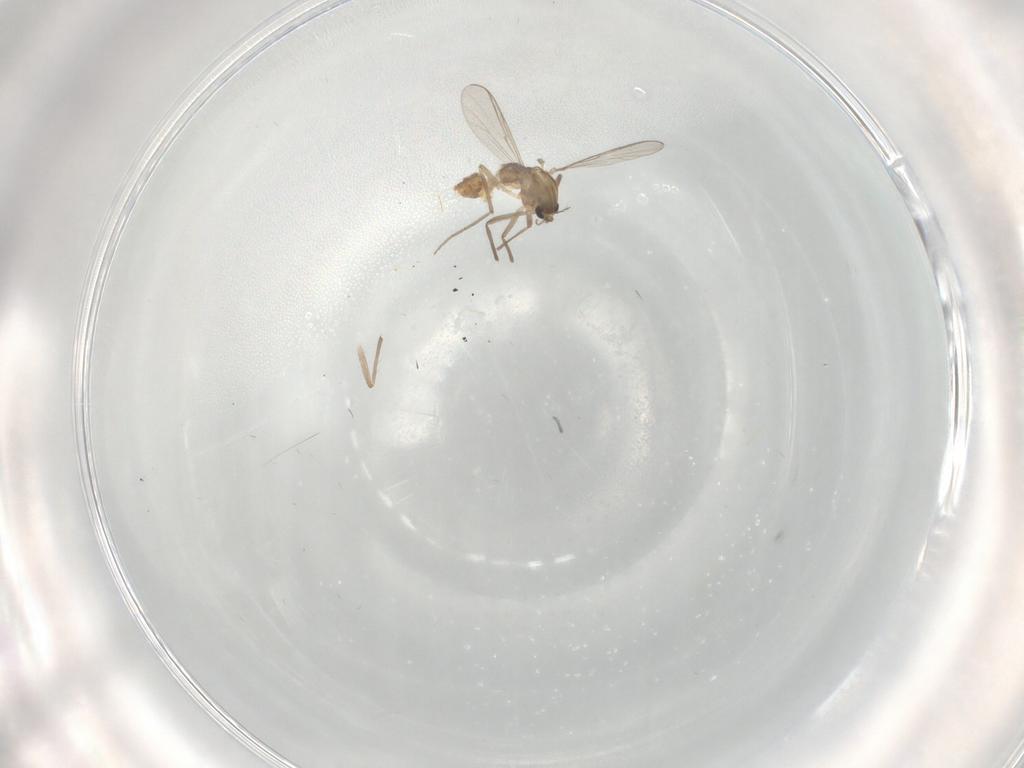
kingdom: Animalia
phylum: Arthropoda
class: Insecta
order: Diptera
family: Chironomidae
